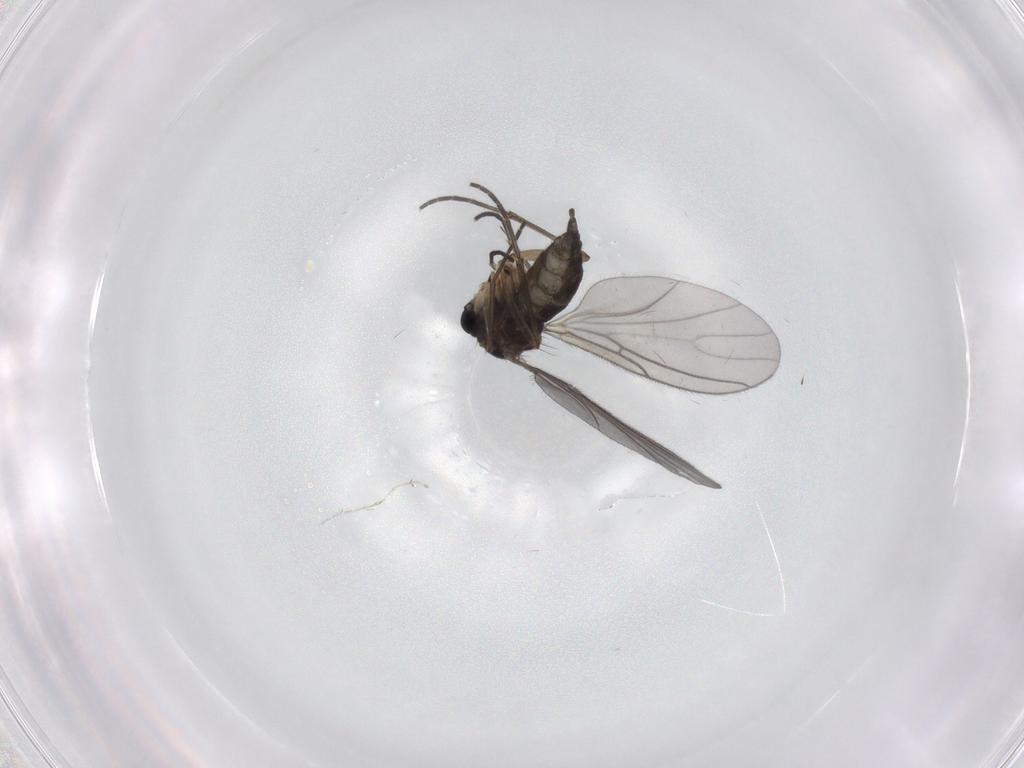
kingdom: Animalia
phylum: Arthropoda
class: Insecta
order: Diptera
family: Sciaridae
